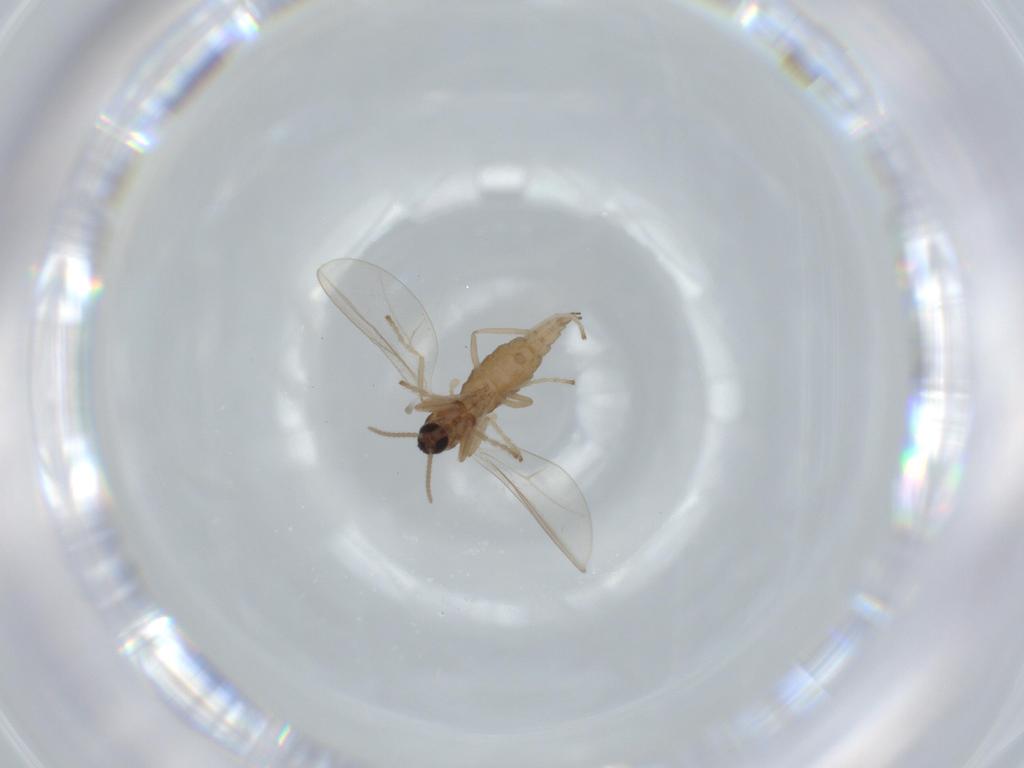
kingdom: Animalia
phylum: Arthropoda
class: Insecta
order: Diptera
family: Cecidomyiidae
